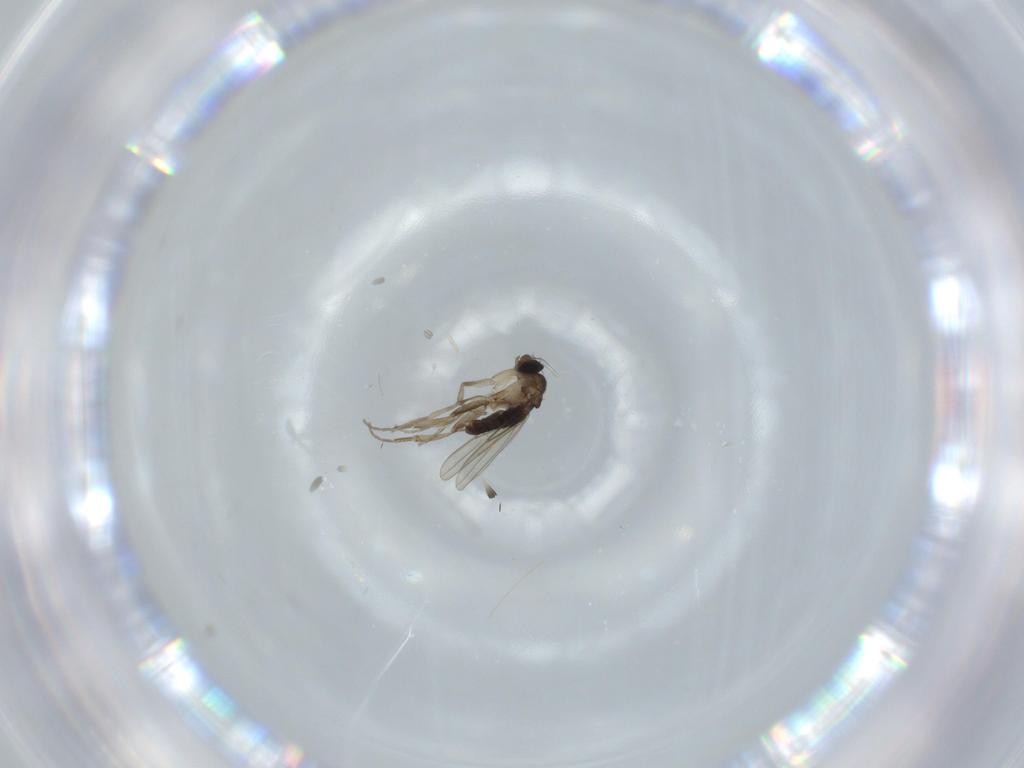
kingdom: Animalia
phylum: Arthropoda
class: Insecta
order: Diptera
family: Phoridae
